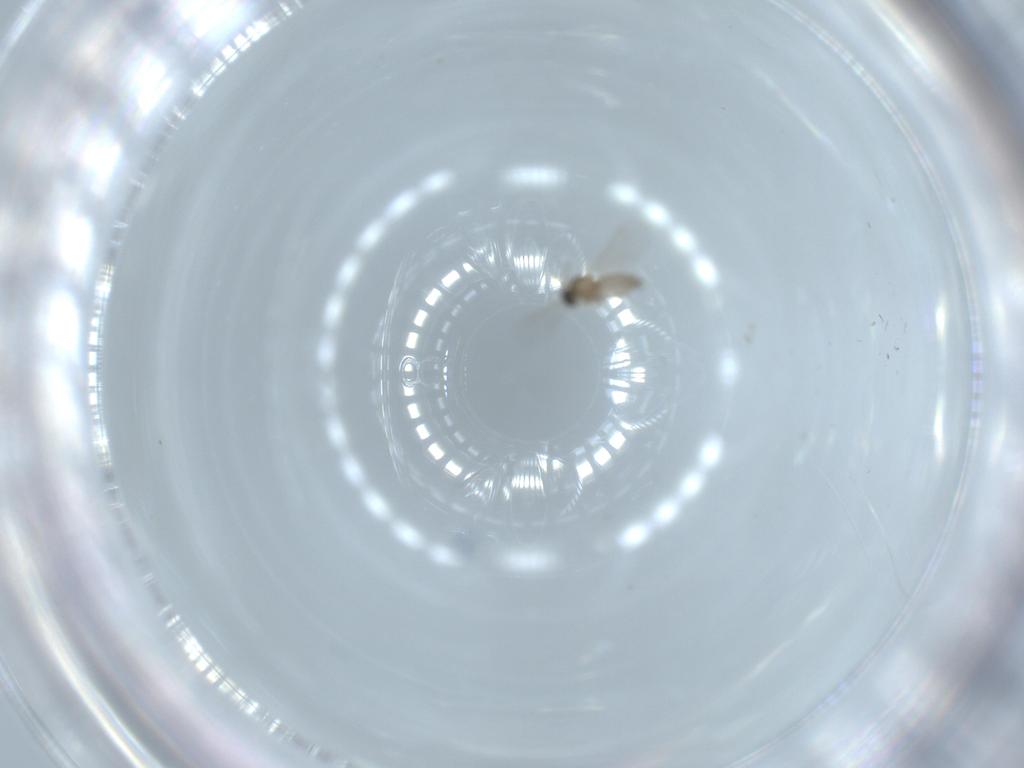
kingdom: Animalia
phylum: Arthropoda
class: Insecta
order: Diptera
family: Cecidomyiidae
